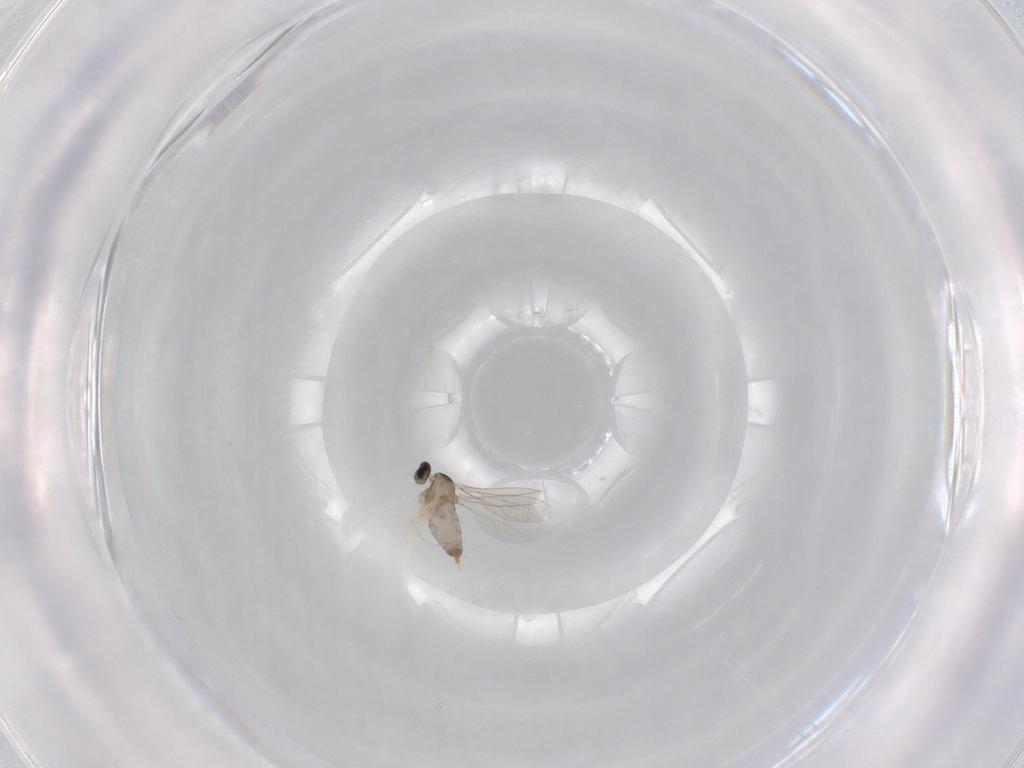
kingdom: Animalia
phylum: Arthropoda
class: Insecta
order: Diptera
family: Cecidomyiidae
